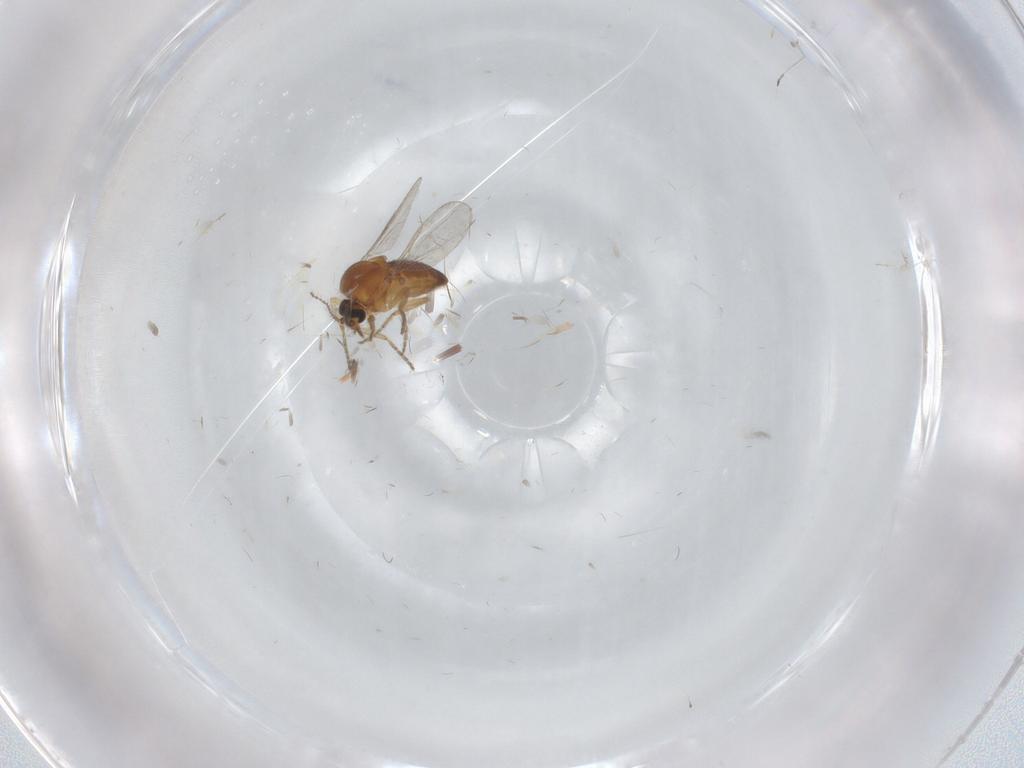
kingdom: Animalia
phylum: Arthropoda
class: Insecta
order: Diptera
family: Ceratopogonidae
